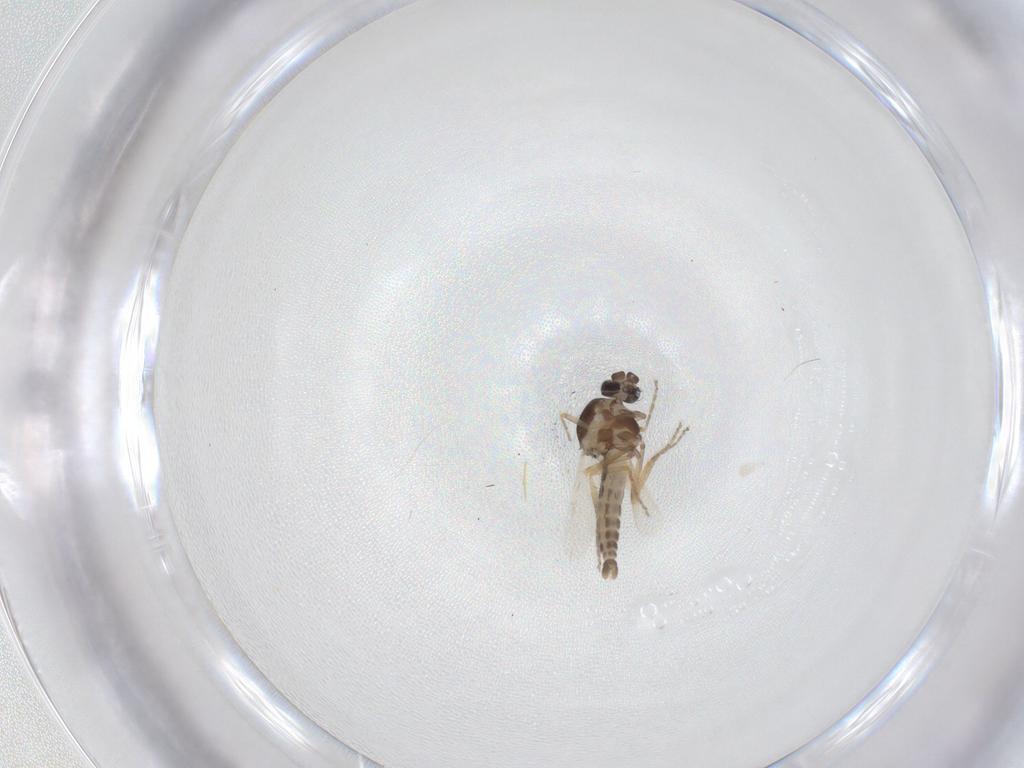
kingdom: Animalia
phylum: Arthropoda
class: Insecta
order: Diptera
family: Ceratopogonidae
